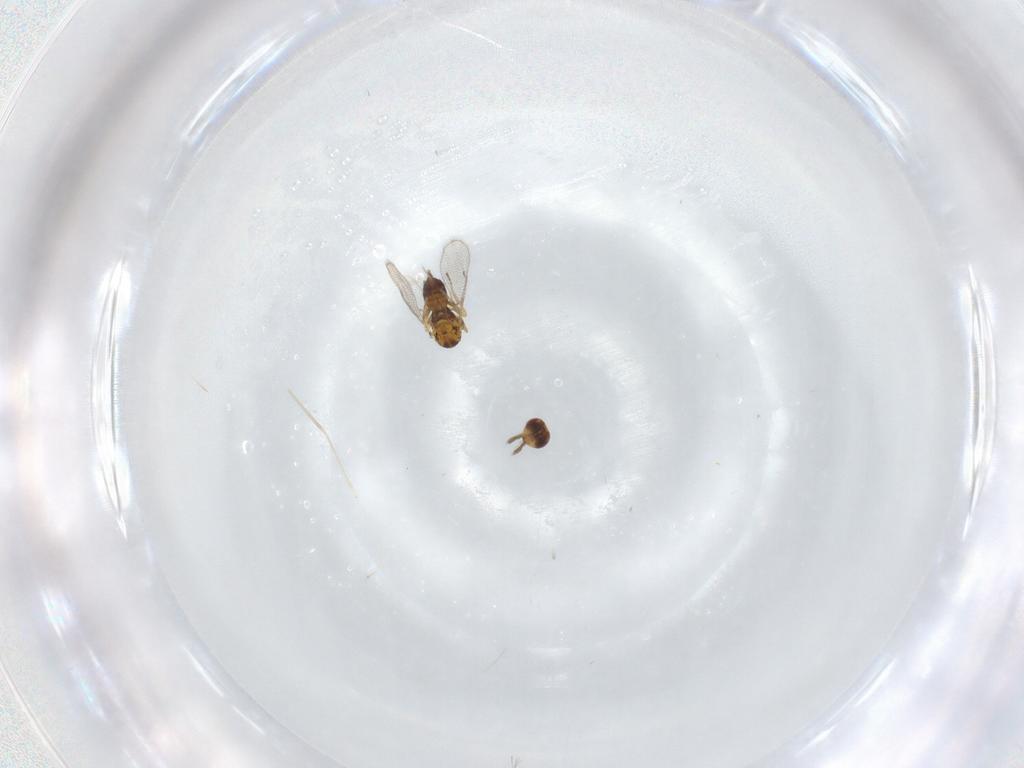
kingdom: Animalia
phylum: Arthropoda
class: Insecta
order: Hymenoptera
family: Eulophidae
